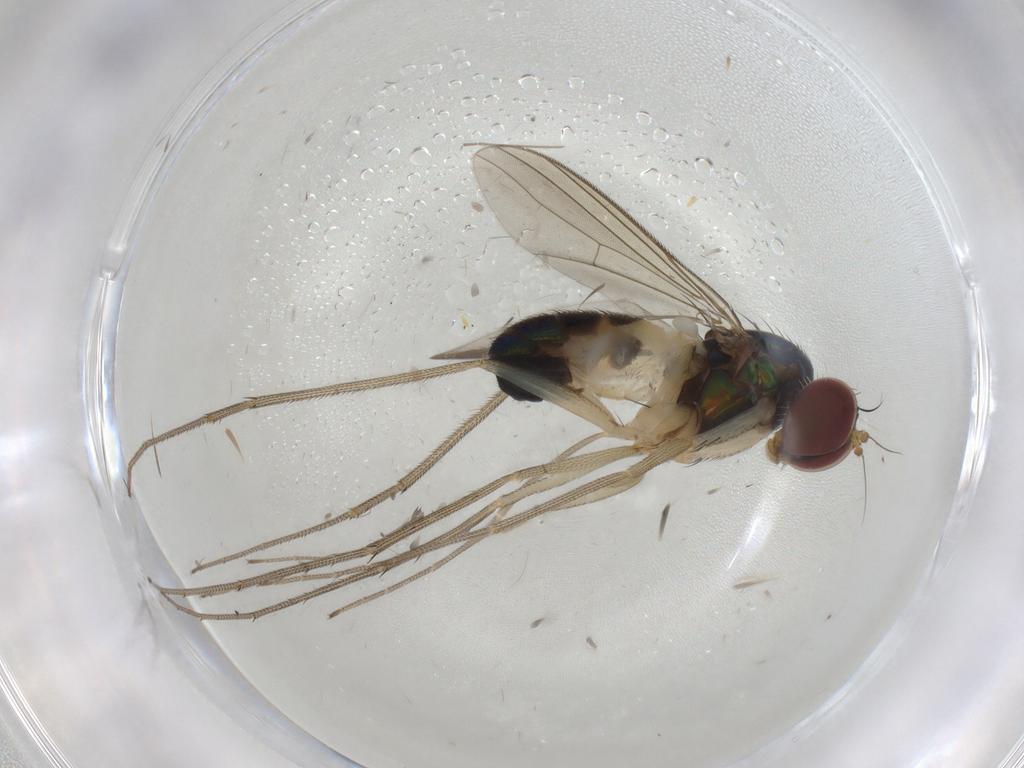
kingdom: Animalia
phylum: Arthropoda
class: Insecta
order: Diptera
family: Dolichopodidae
